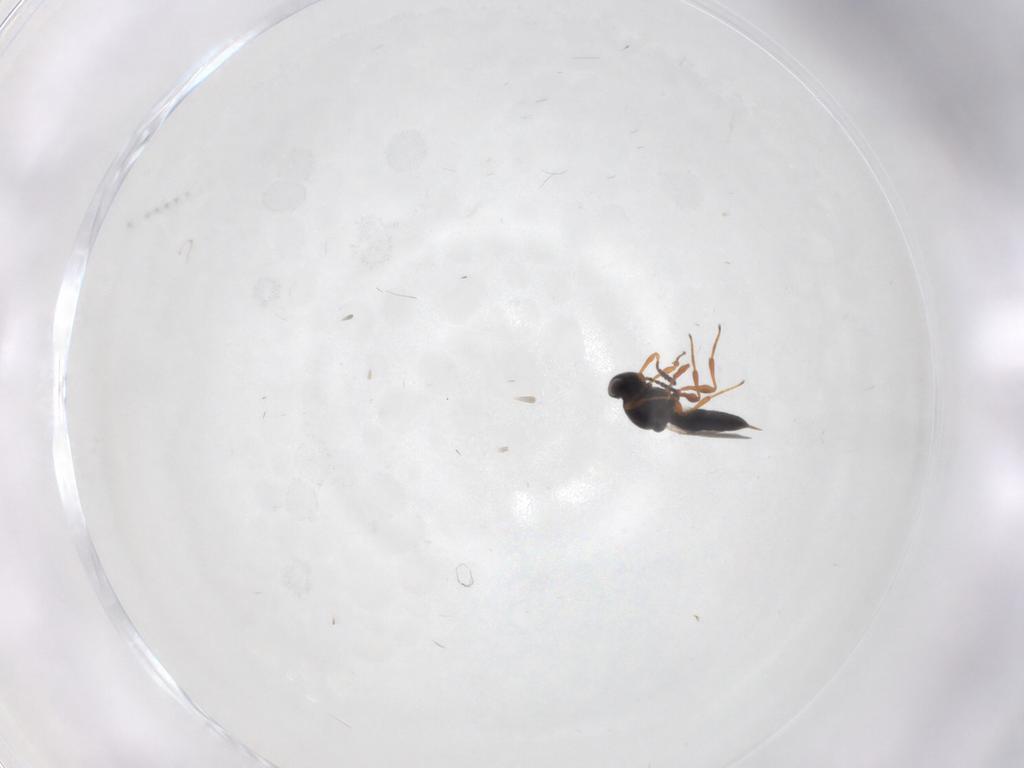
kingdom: Animalia
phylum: Arthropoda
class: Insecta
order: Hymenoptera
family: Platygastridae
